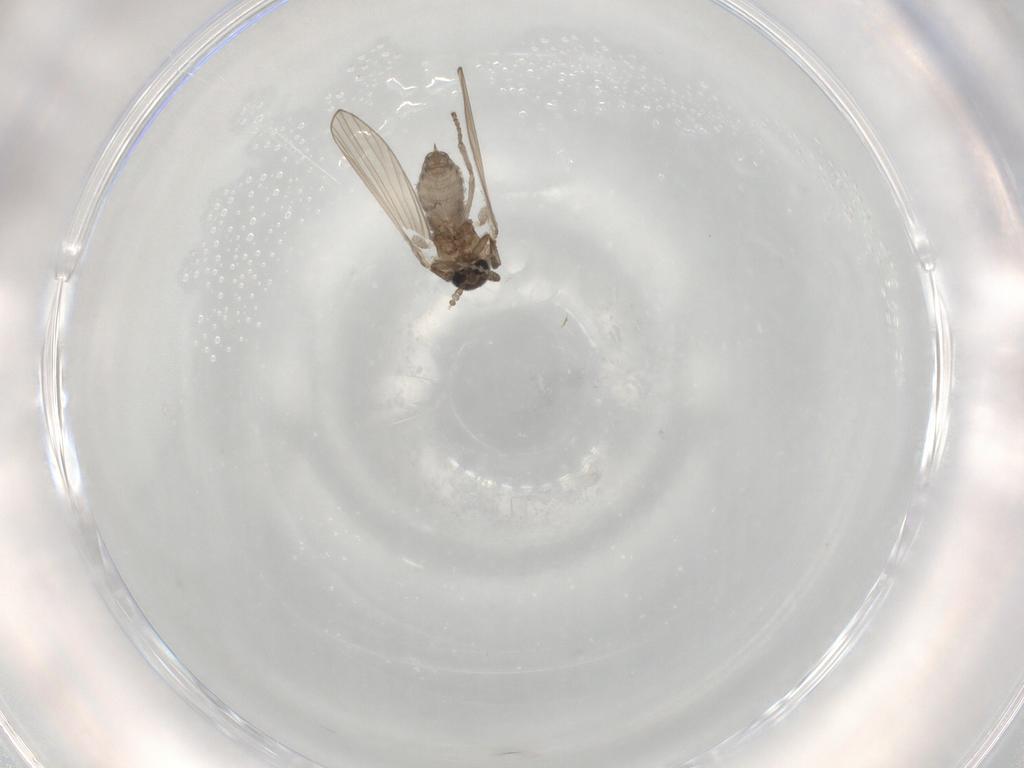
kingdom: Animalia
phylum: Arthropoda
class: Insecta
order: Diptera
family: Psychodidae
